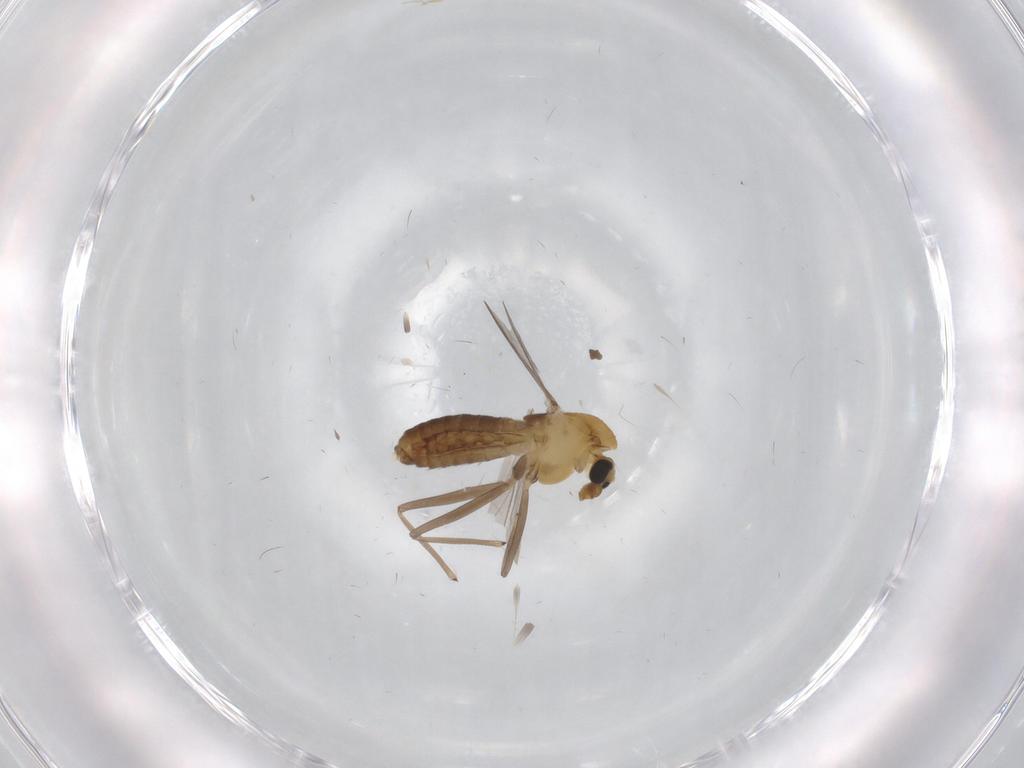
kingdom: Animalia
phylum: Arthropoda
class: Insecta
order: Diptera
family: Chironomidae
